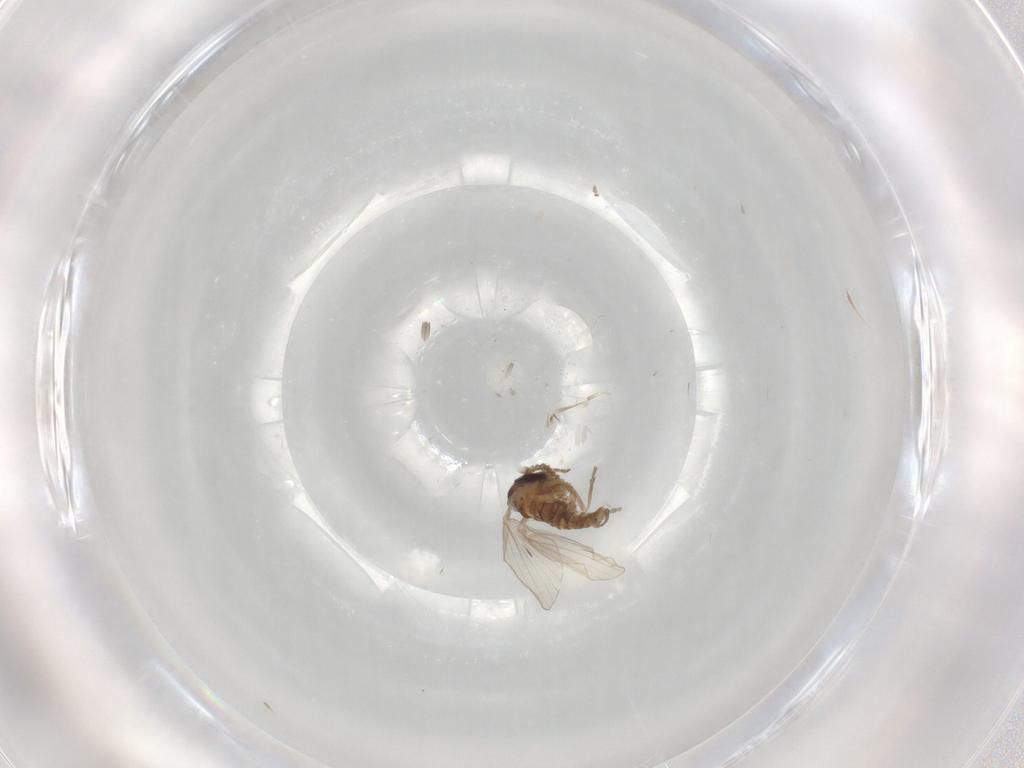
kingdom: Animalia
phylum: Arthropoda
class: Insecta
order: Diptera
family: Psychodidae
